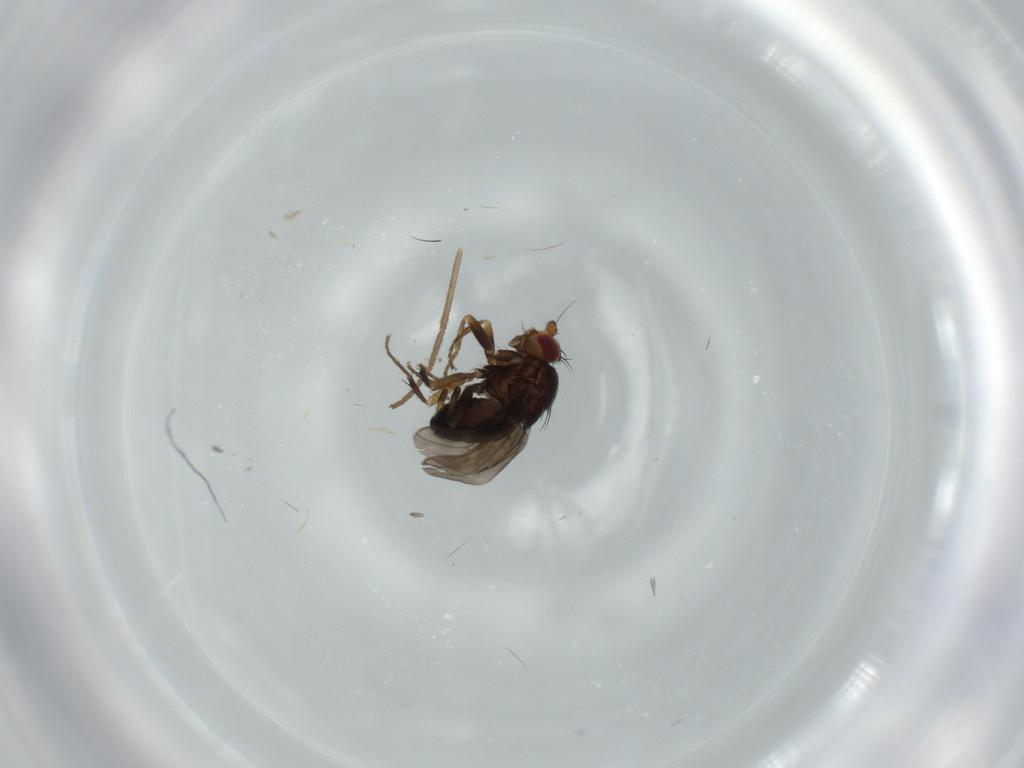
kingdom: Animalia
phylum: Arthropoda
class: Insecta
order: Diptera
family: Sphaeroceridae
